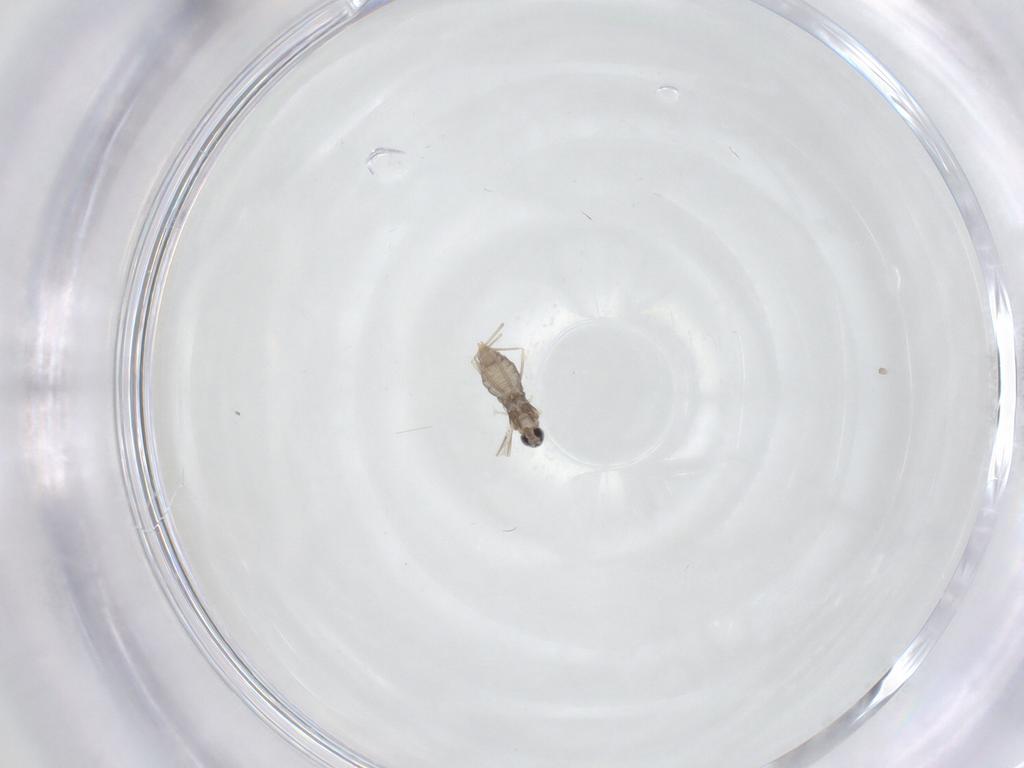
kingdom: Animalia
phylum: Arthropoda
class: Insecta
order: Diptera
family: Cecidomyiidae
